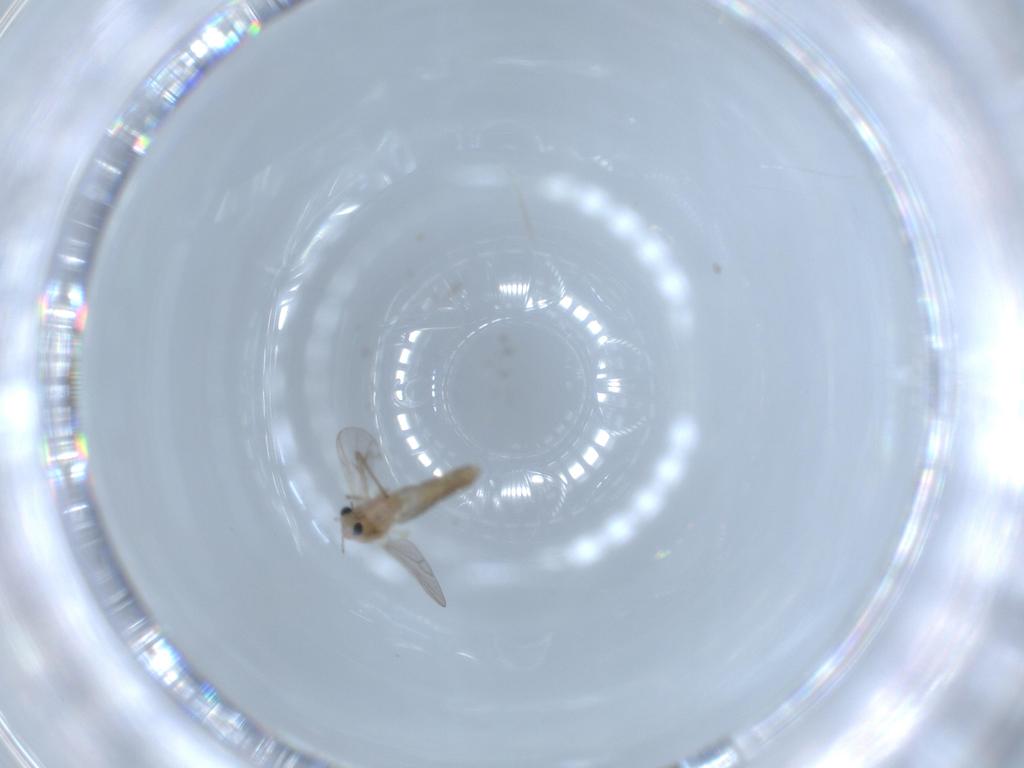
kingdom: Animalia
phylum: Arthropoda
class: Insecta
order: Diptera
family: Chironomidae
